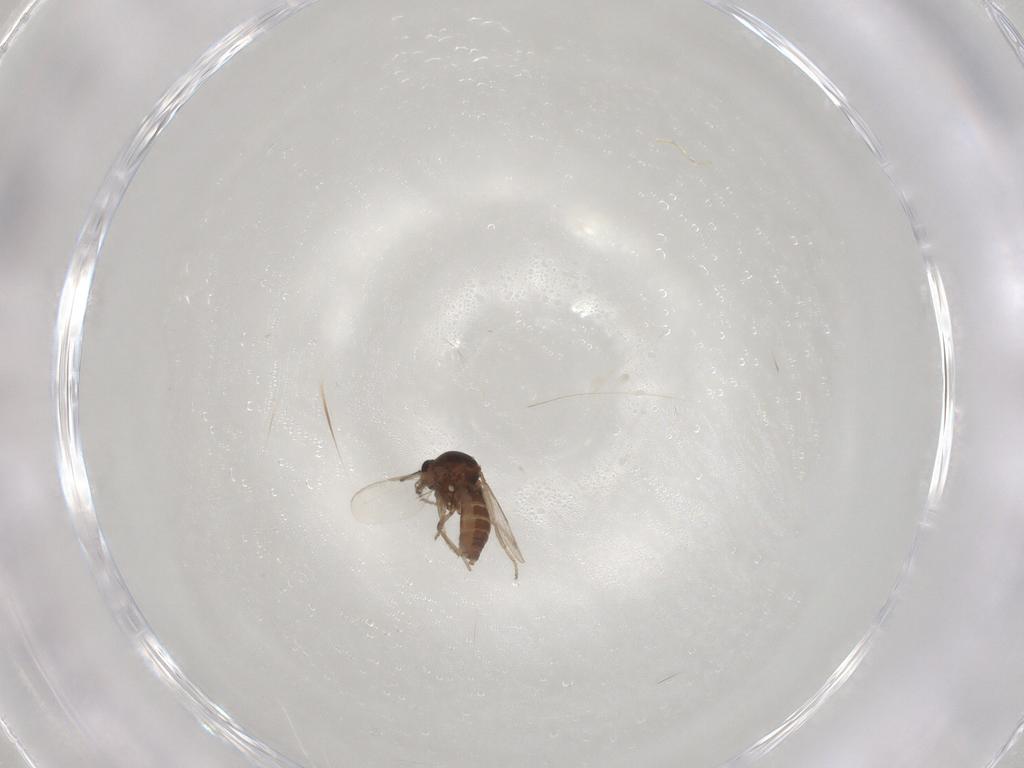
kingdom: Animalia
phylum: Arthropoda
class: Insecta
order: Diptera
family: Ceratopogonidae
